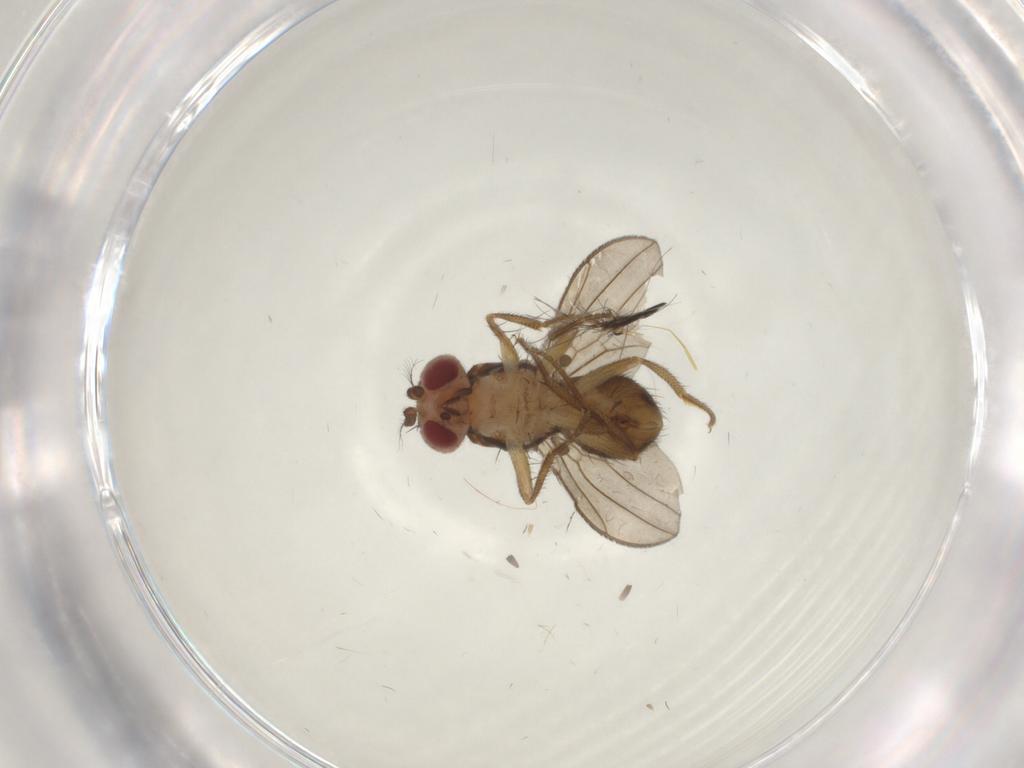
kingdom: Animalia
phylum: Arthropoda
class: Insecta
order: Diptera
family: Drosophilidae
